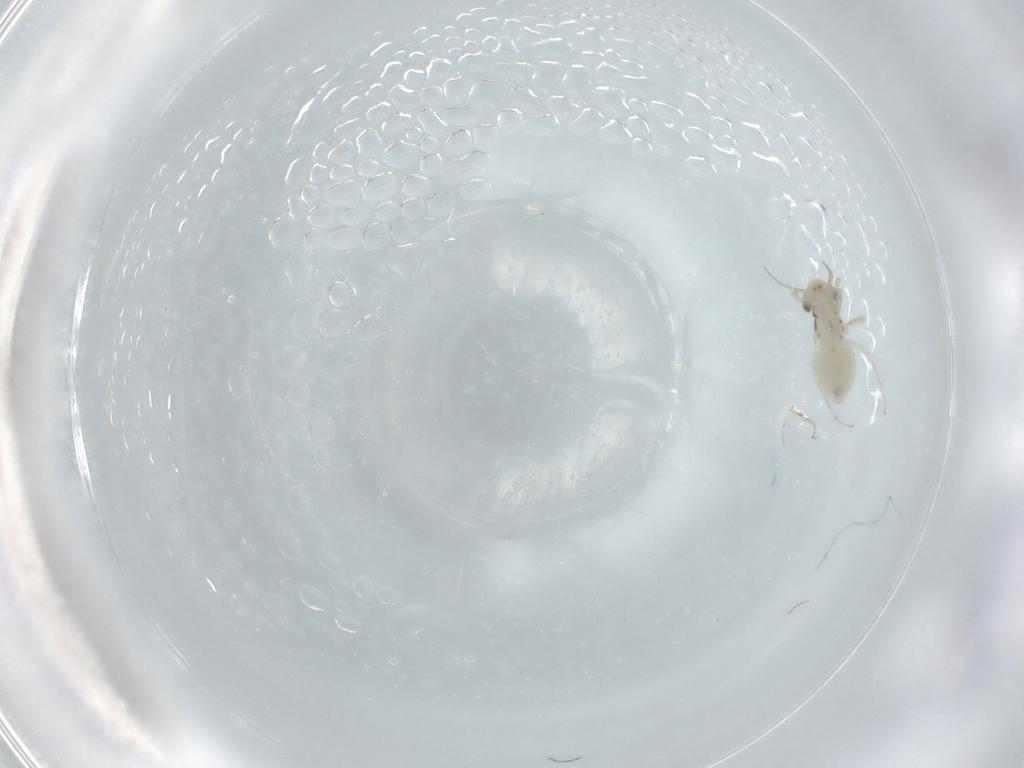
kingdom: Animalia
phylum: Arthropoda
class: Insecta
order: Psocodea
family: Lepidopsocidae
